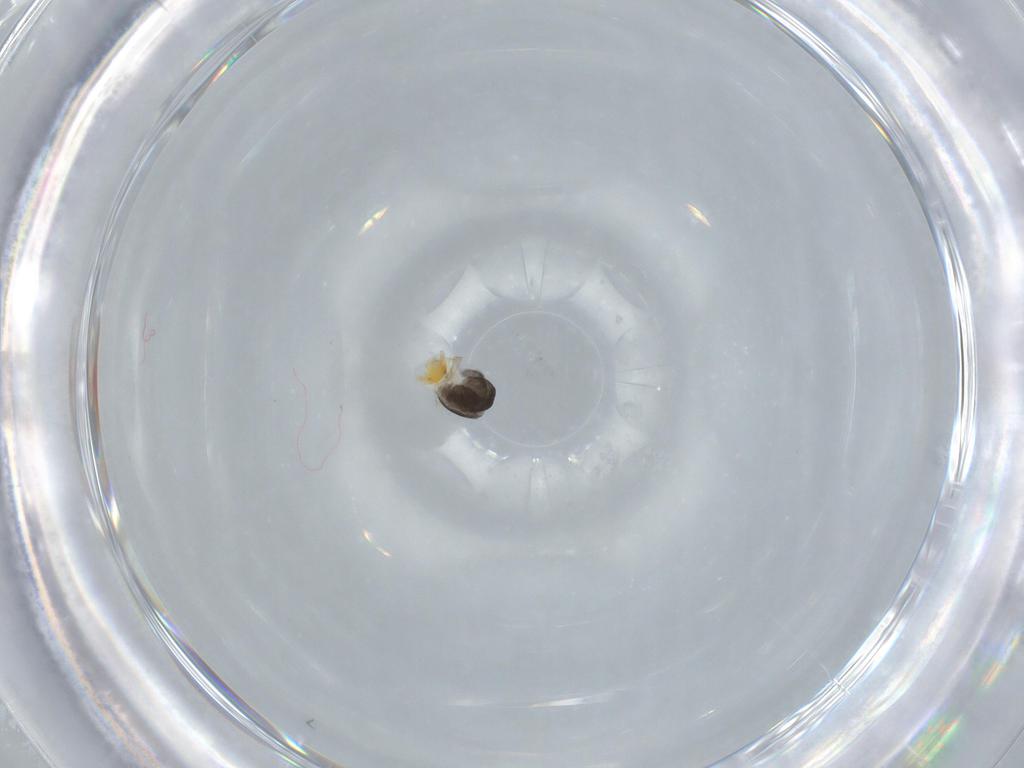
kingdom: Animalia
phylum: Arthropoda
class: Insecta
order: Hymenoptera
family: Dryinidae
